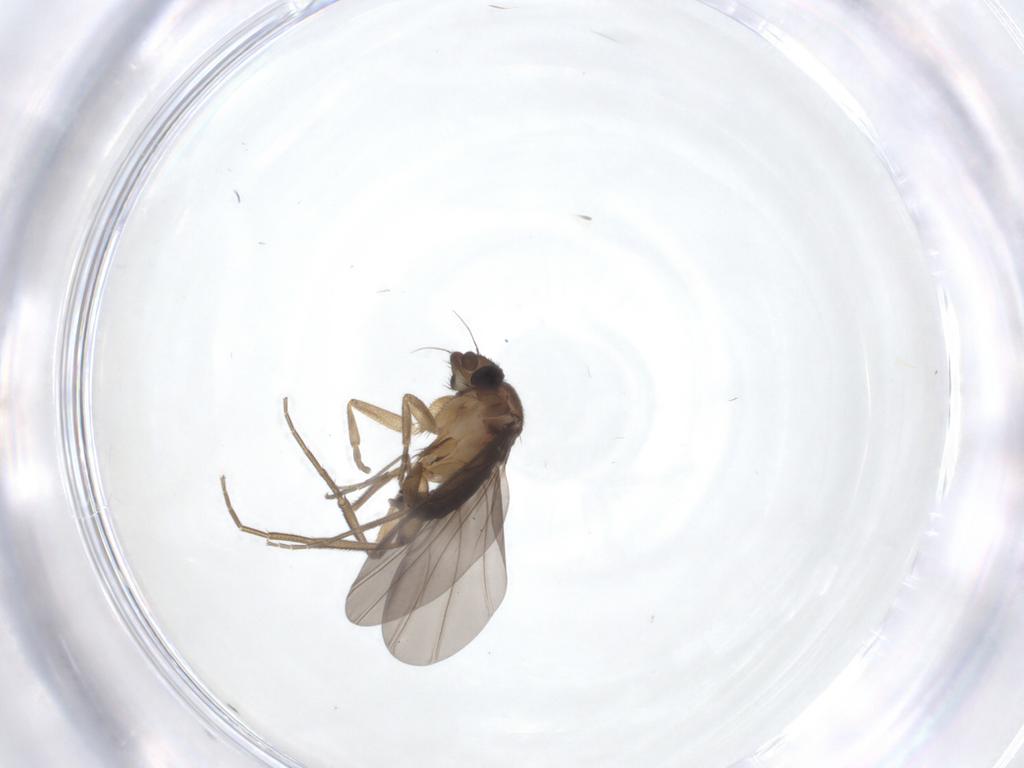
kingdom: Animalia
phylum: Arthropoda
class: Insecta
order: Diptera
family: Phoridae
